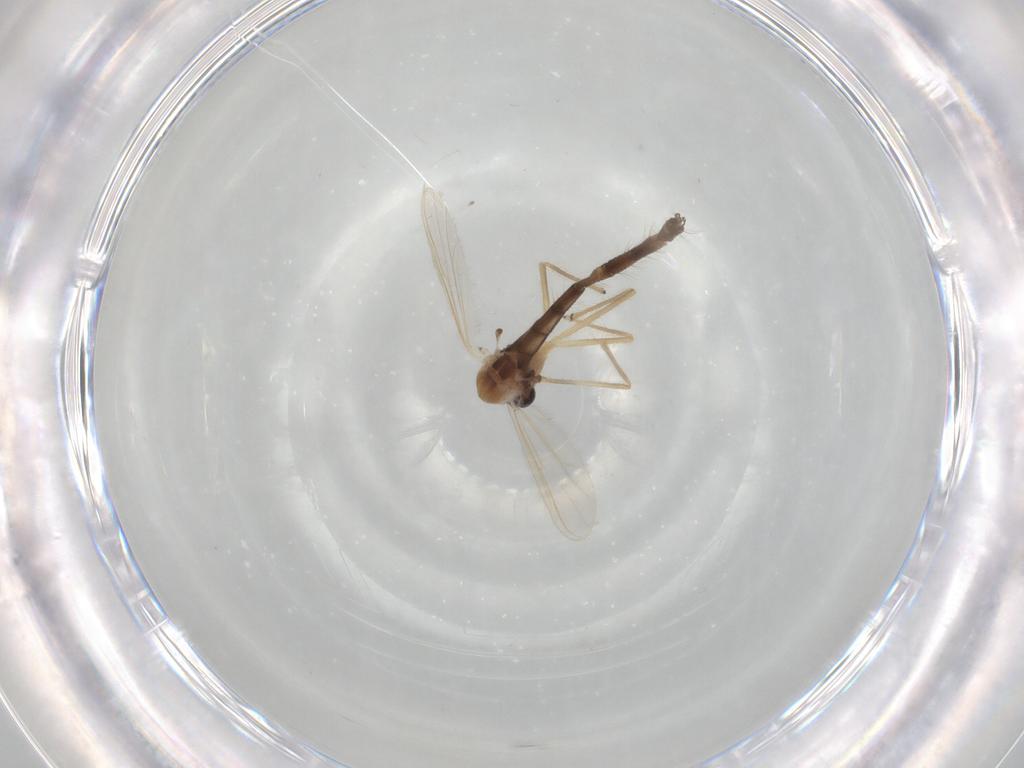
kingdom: Animalia
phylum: Arthropoda
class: Insecta
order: Diptera
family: Chironomidae
